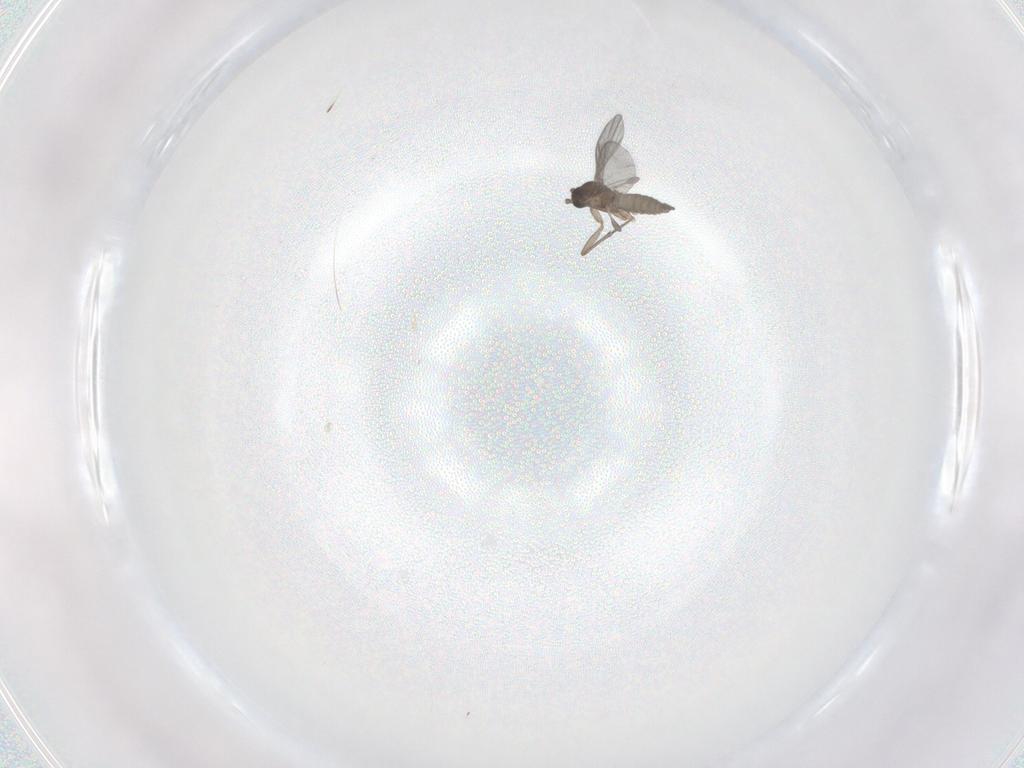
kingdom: Animalia
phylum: Arthropoda
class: Insecta
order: Diptera
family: Sciaridae
